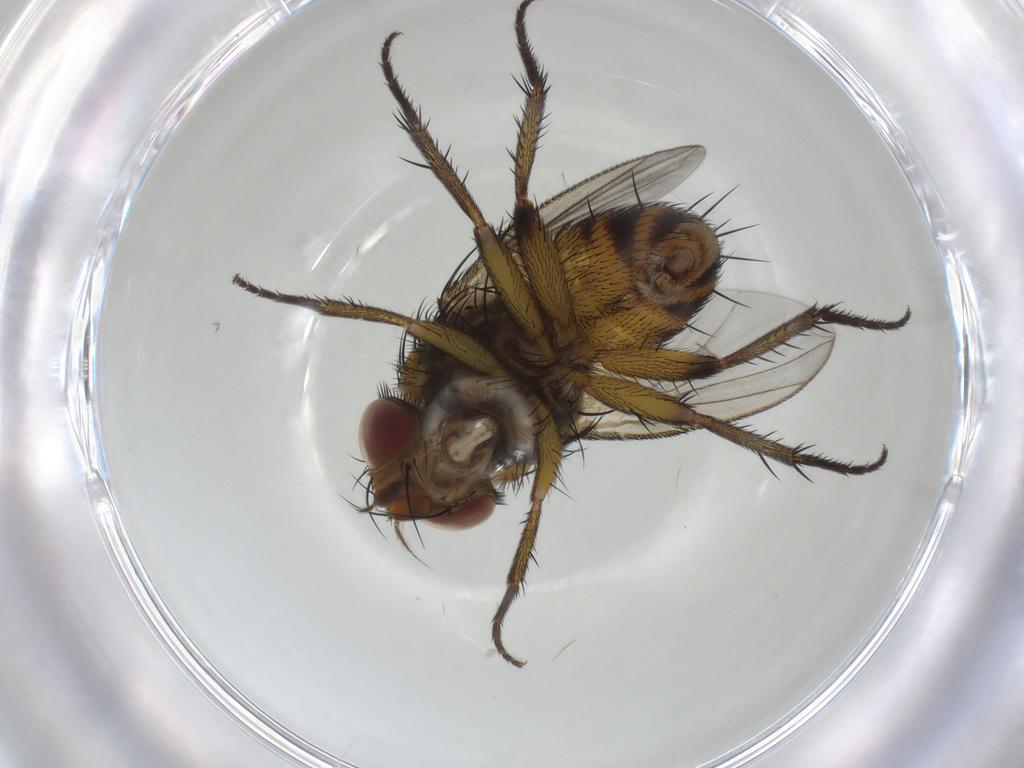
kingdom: Animalia
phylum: Arthropoda
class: Insecta
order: Diptera
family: Tachinidae
